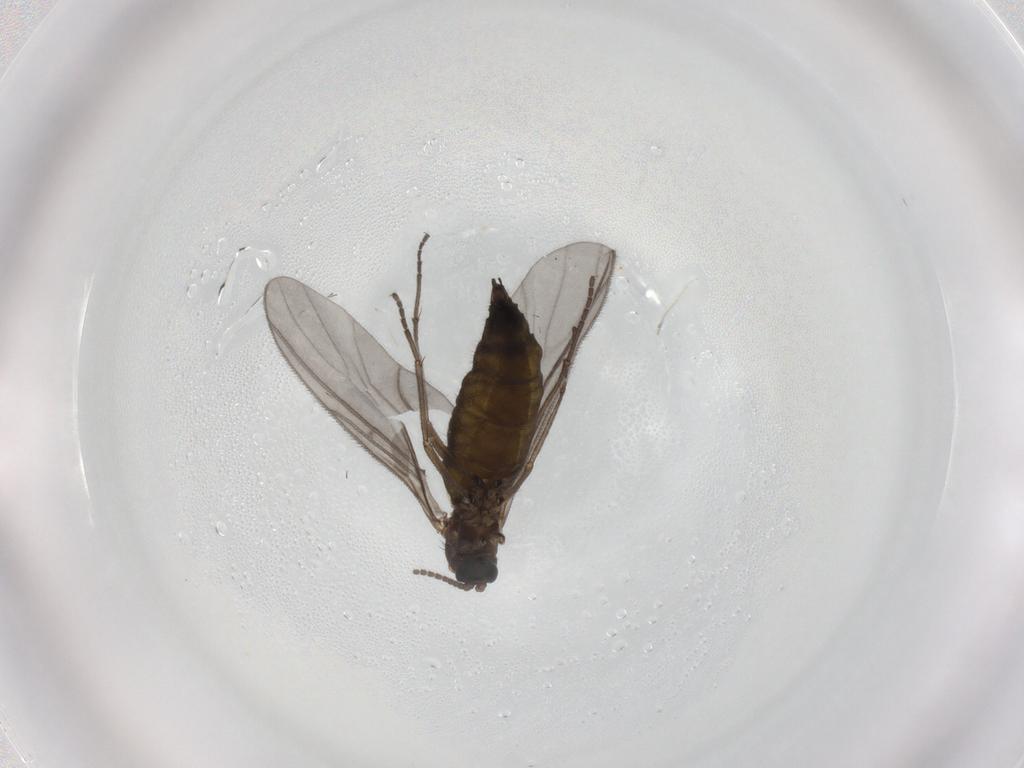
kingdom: Animalia
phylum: Arthropoda
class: Insecta
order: Diptera
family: Sciaridae
